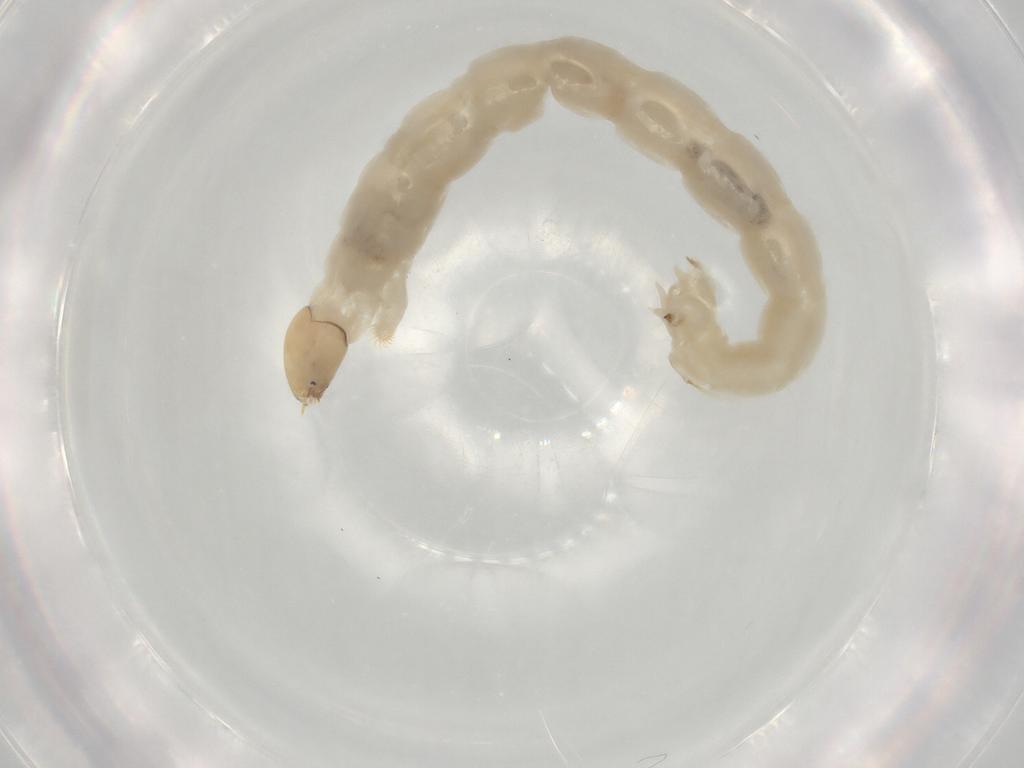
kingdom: Animalia
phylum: Arthropoda
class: Insecta
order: Diptera
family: Chironomidae
